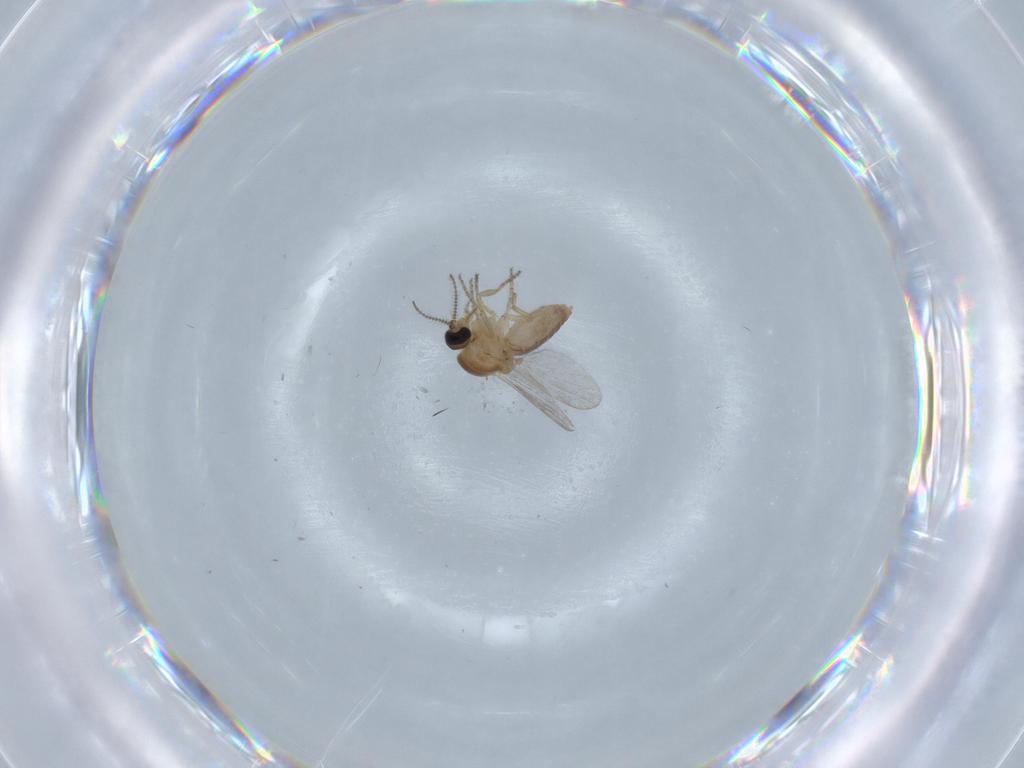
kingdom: Animalia
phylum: Arthropoda
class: Insecta
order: Diptera
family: Ceratopogonidae
